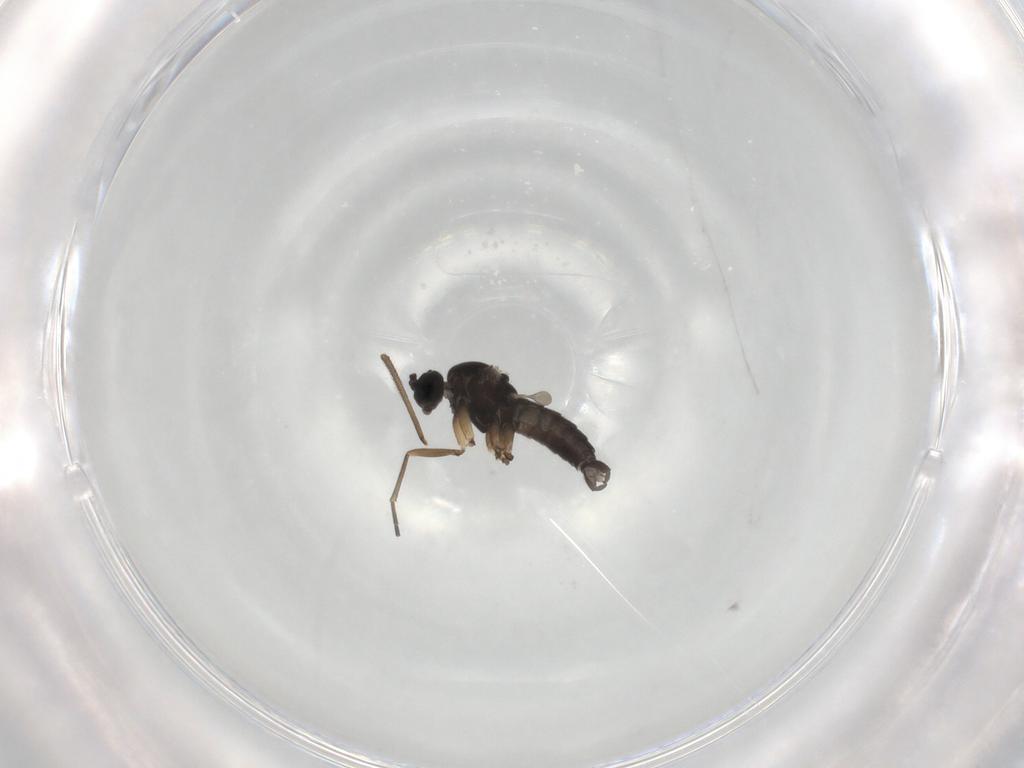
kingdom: Animalia
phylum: Arthropoda
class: Insecta
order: Diptera
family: Sciaridae
